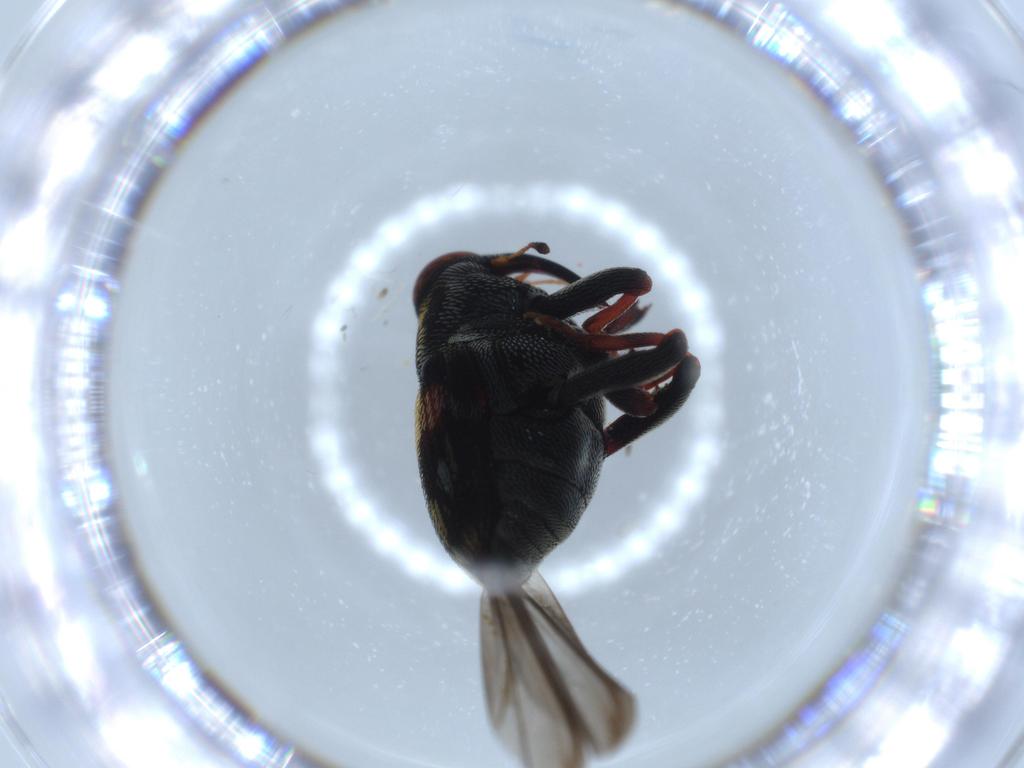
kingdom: Animalia
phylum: Arthropoda
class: Insecta
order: Coleoptera
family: Curculionidae
